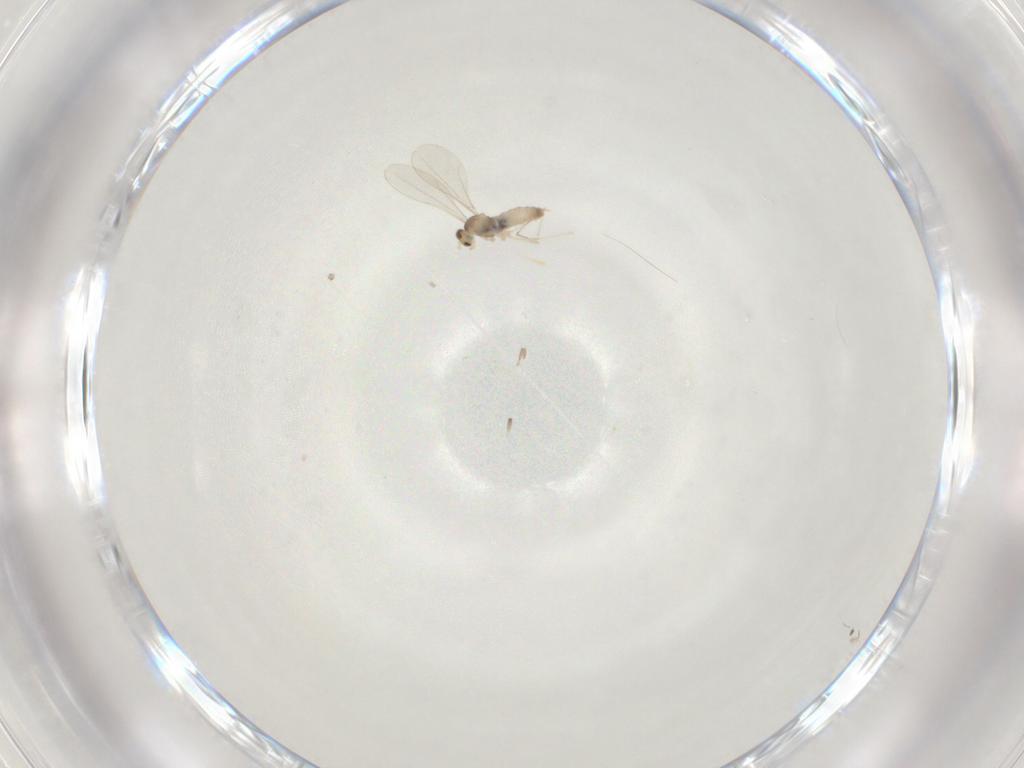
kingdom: Animalia
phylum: Arthropoda
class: Insecta
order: Diptera
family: Cecidomyiidae
